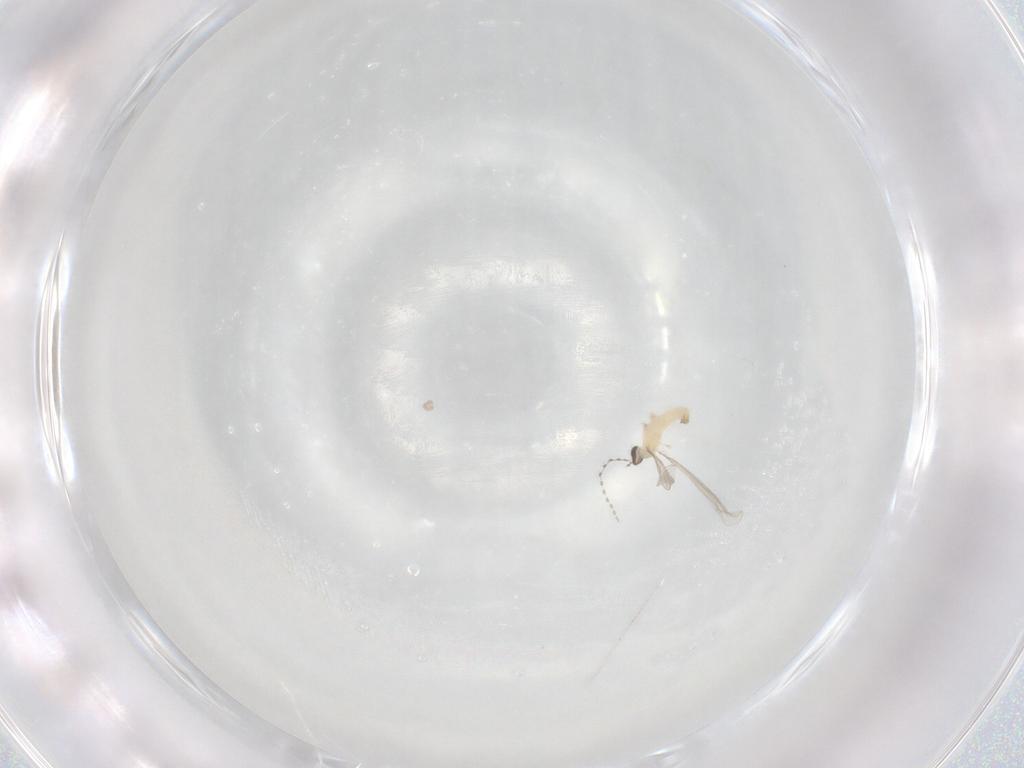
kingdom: Animalia
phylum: Arthropoda
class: Insecta
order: Diptera
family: Cecidomyiidae
